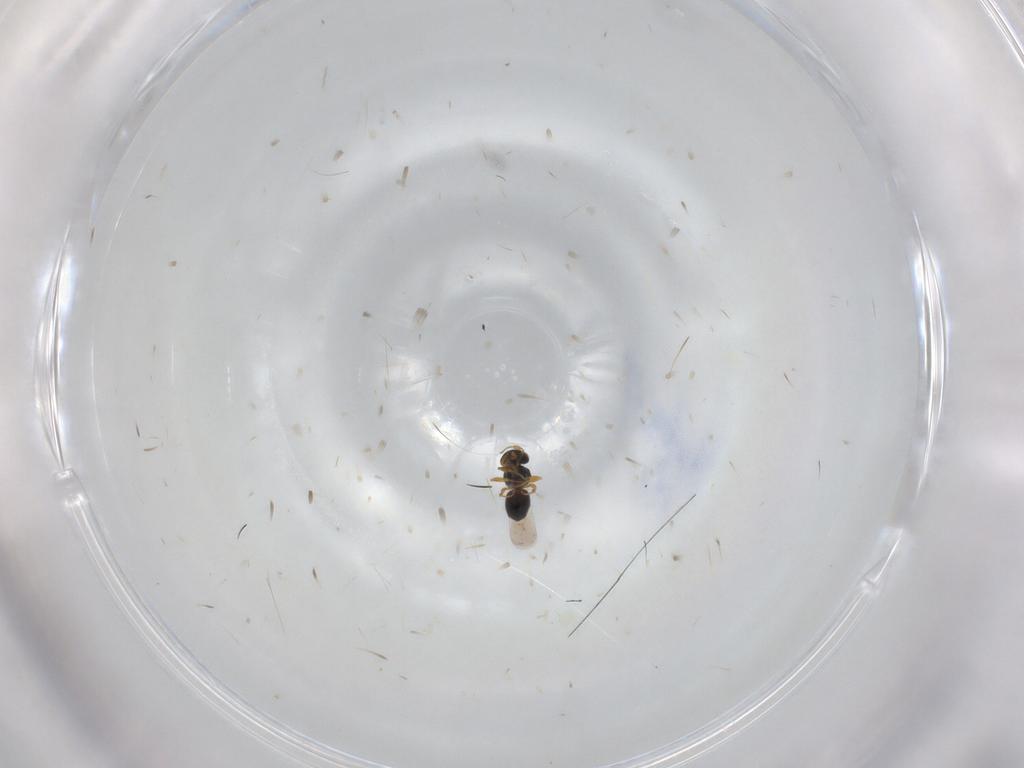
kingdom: Animalia
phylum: Arthropoda
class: Insecta
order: Hymenoptera
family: Platygastridae
